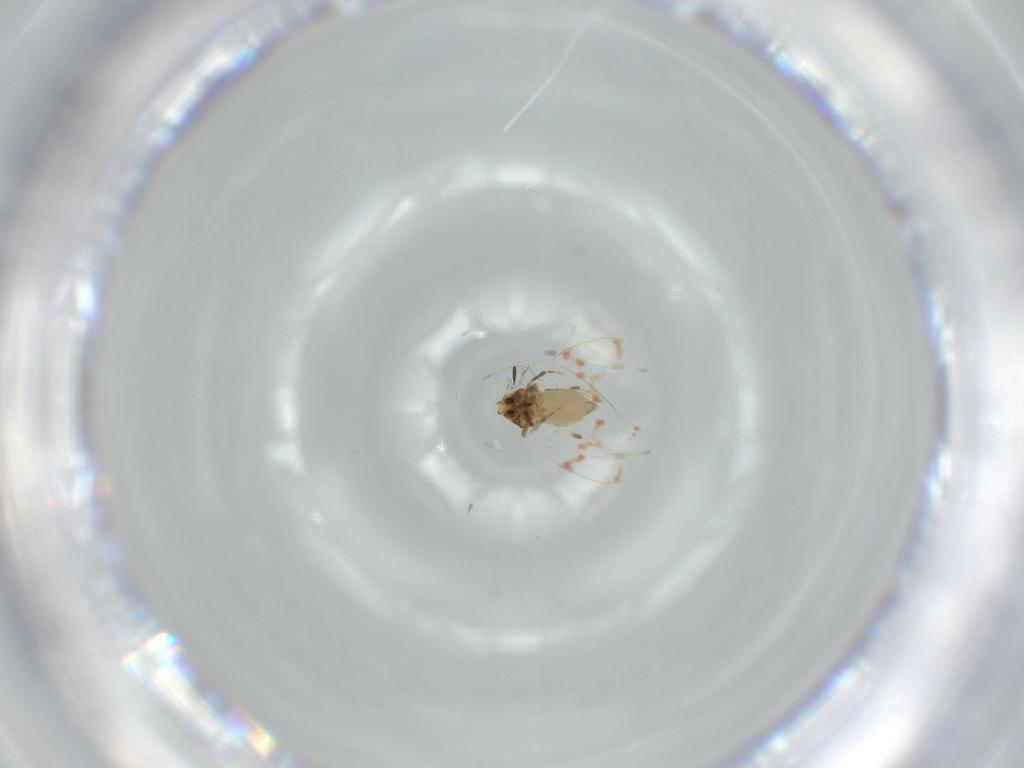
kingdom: Animalia
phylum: Arthropoda
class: Insecta
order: Hemiptera
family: Aleyrodidae
